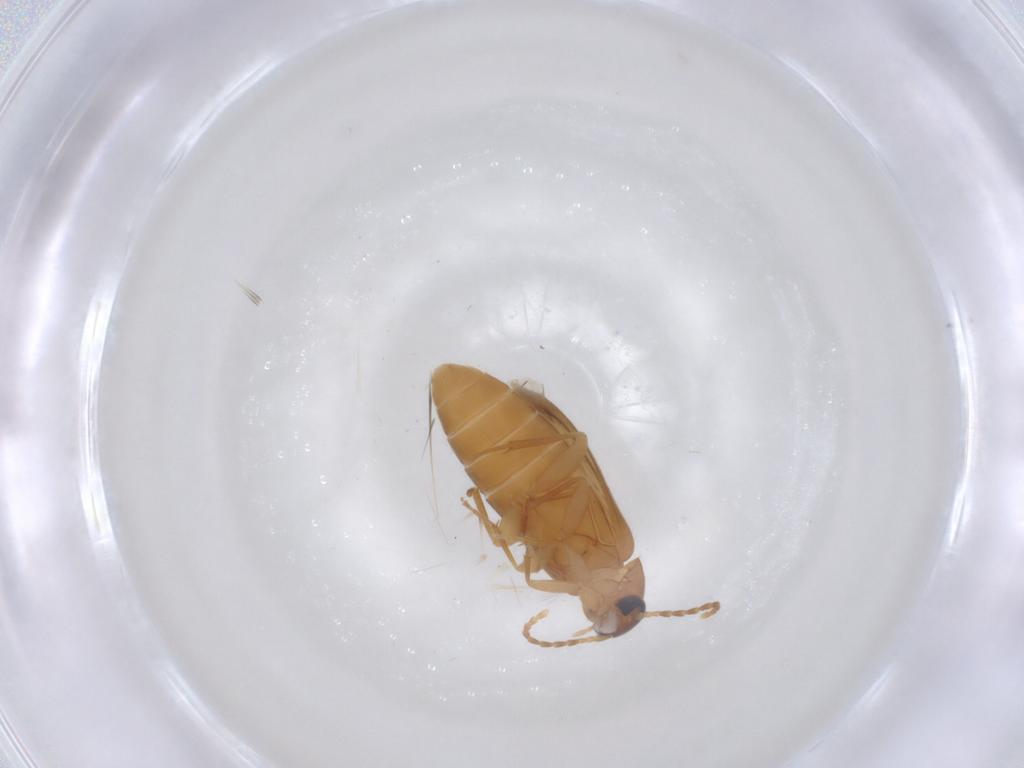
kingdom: Animalia
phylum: Arthropoda
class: Insecta
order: Coleoptera
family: Scraptiidae
